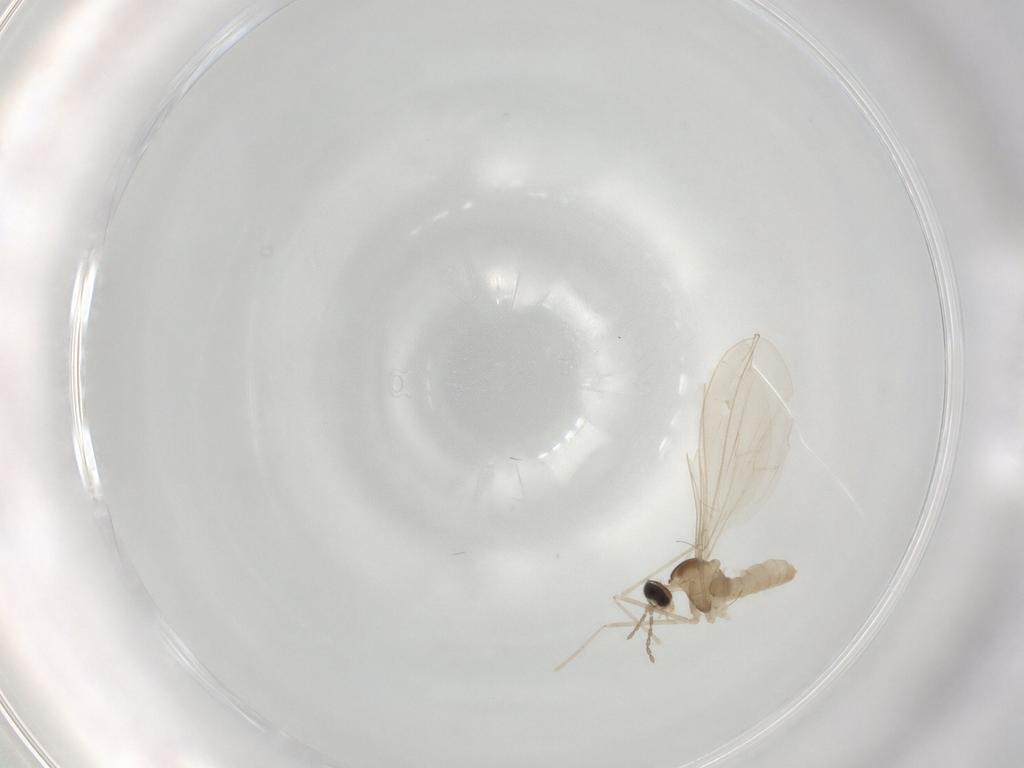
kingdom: Animalia
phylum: Arthropoda
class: Insecta
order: Diptera
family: Cecidomyiidae
